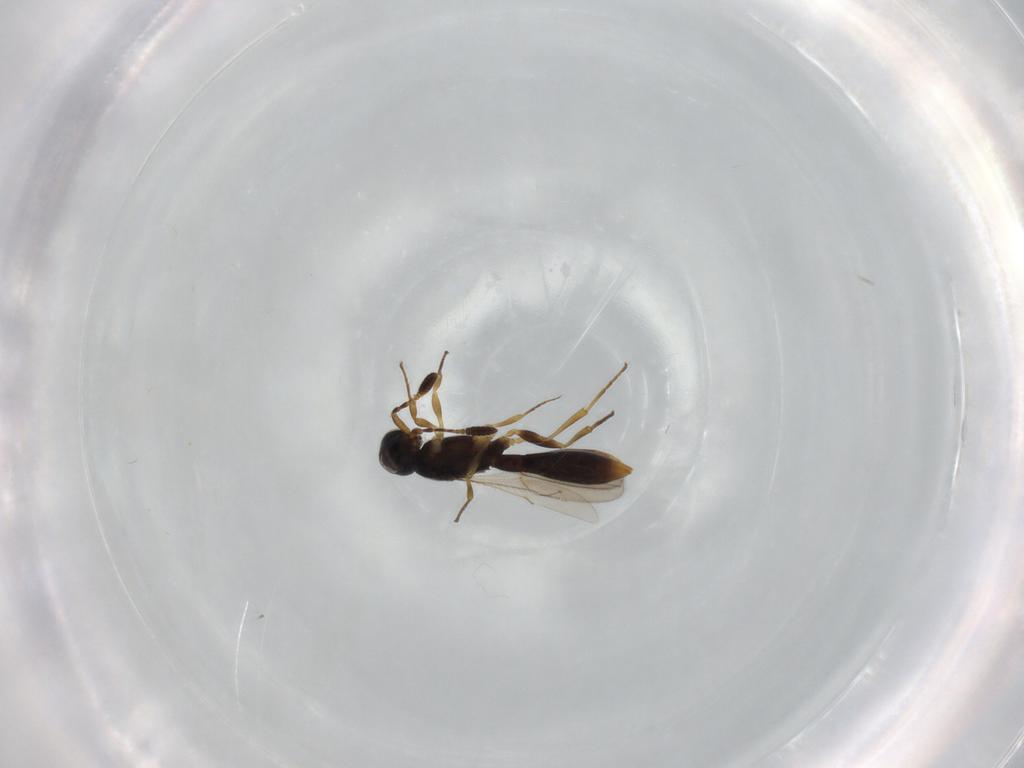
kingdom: Animalia
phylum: Arthropoda
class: Insecta
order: Hymenoptera
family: Scelionidae
